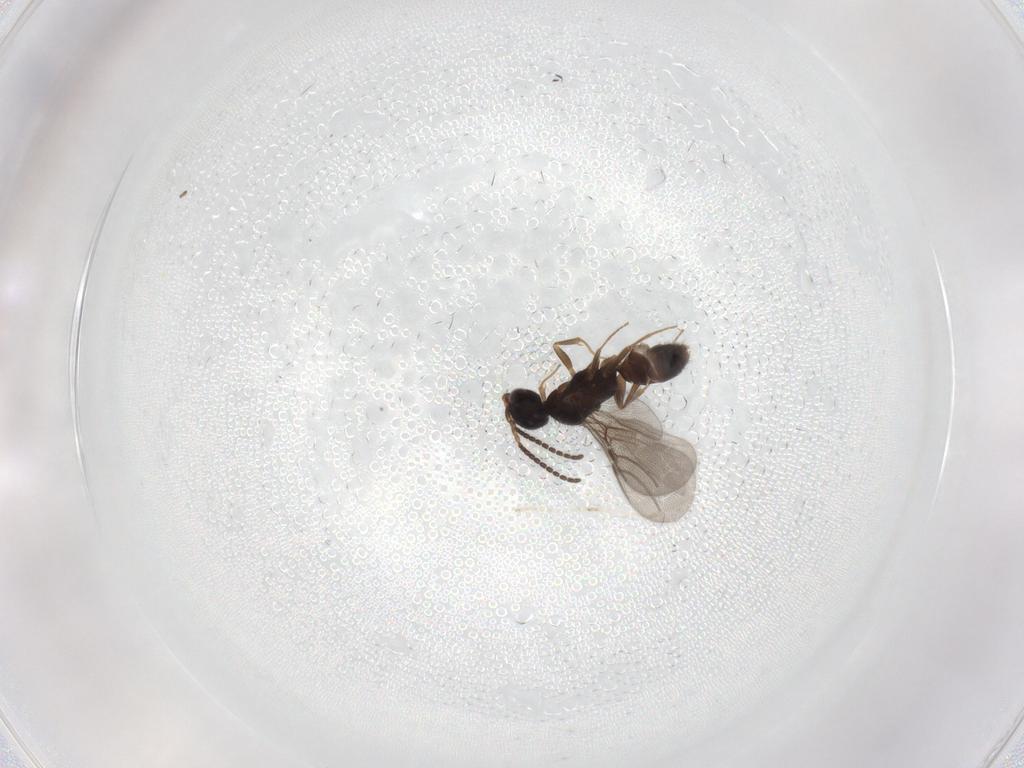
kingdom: Animalia
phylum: Arthropoda
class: Insecta
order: Hymenoptera
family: Bethylidae
